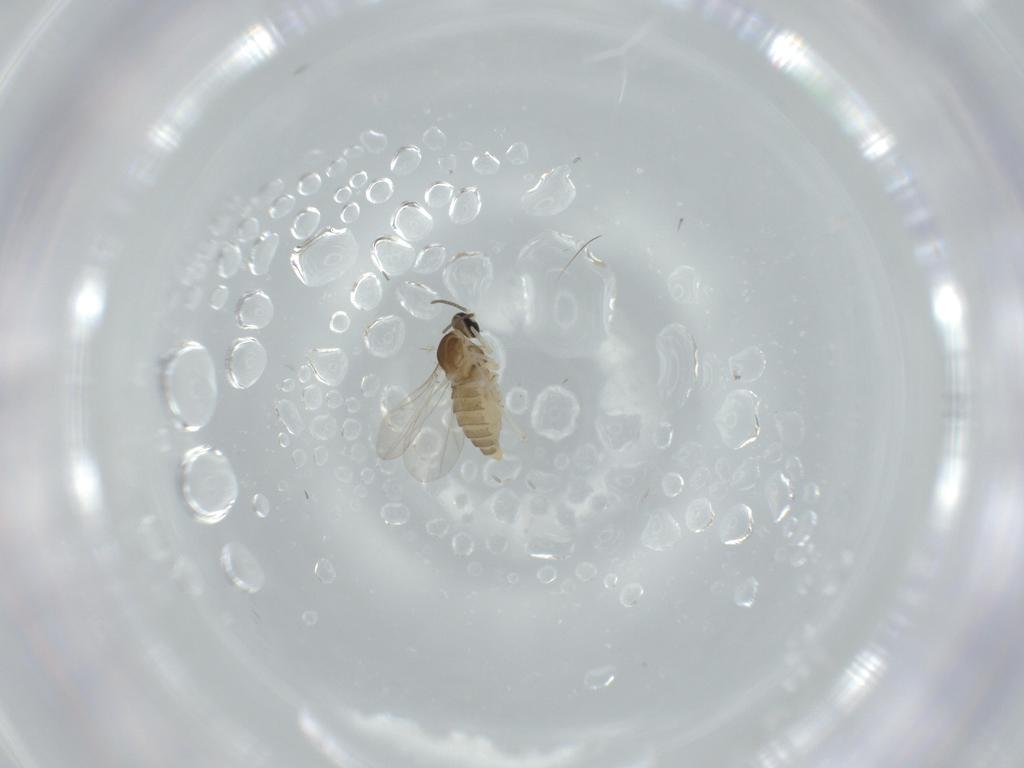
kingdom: Animalia
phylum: Arthropoda
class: Insecta
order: Diptera
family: Cecidomyiidae
